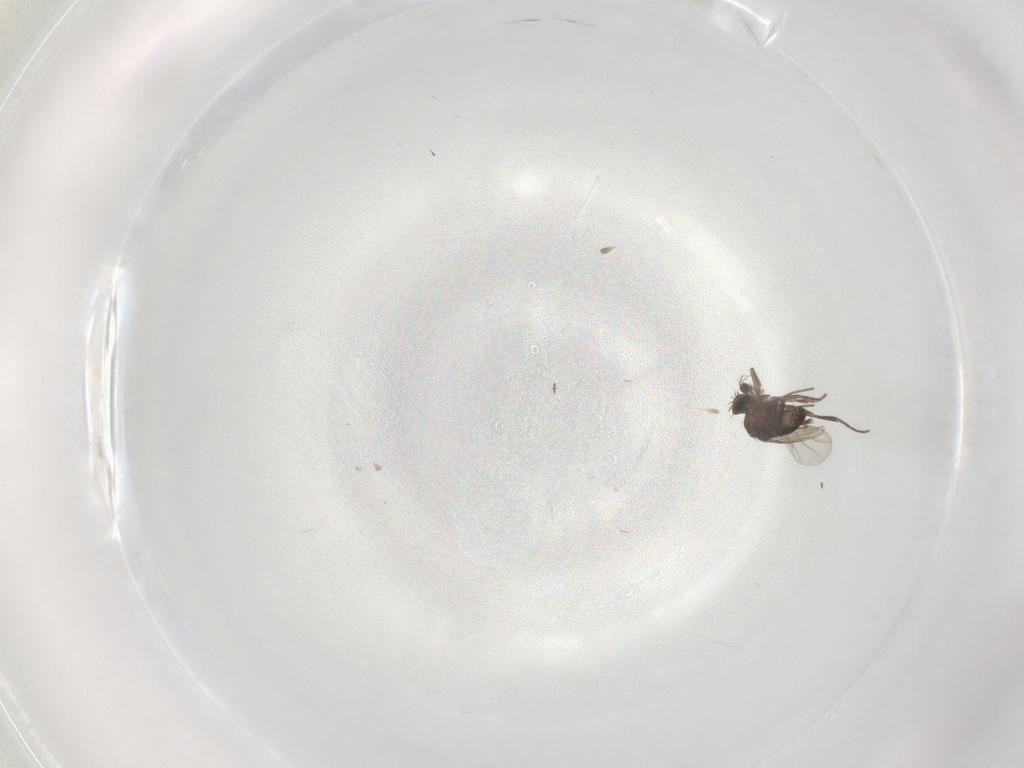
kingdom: Animalia
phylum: Arthropoda
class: Insecta
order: Diptera
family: Phoridae
